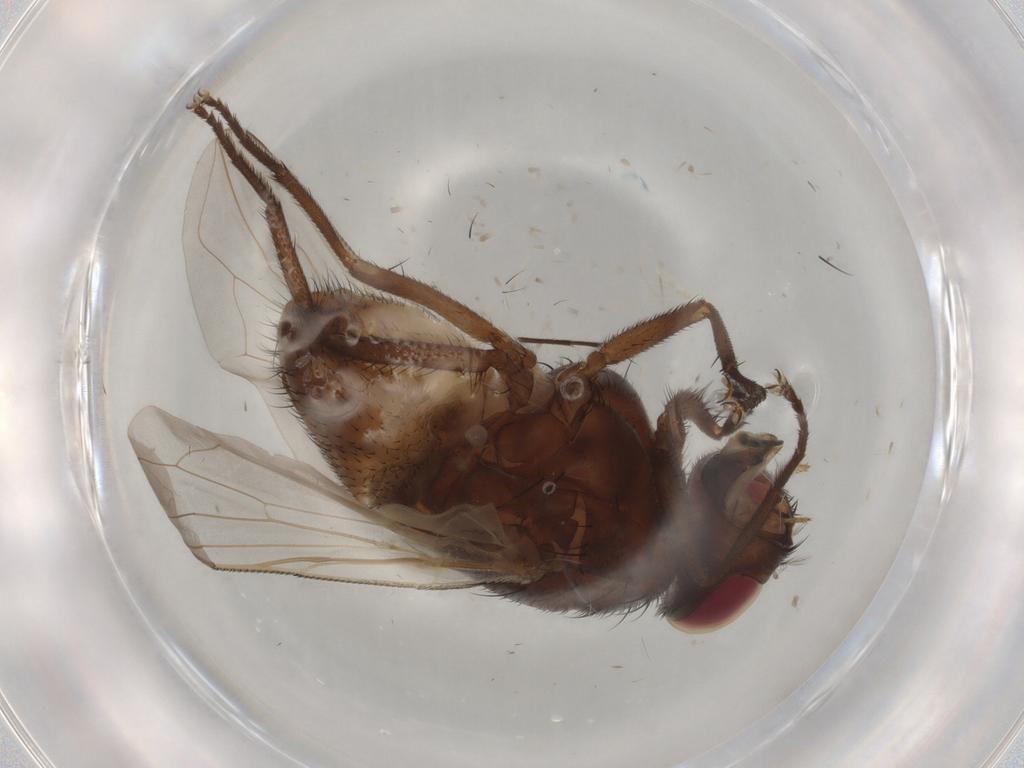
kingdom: Animalia
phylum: Arthropoda
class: Insecta
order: Diptera
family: Muscidae
